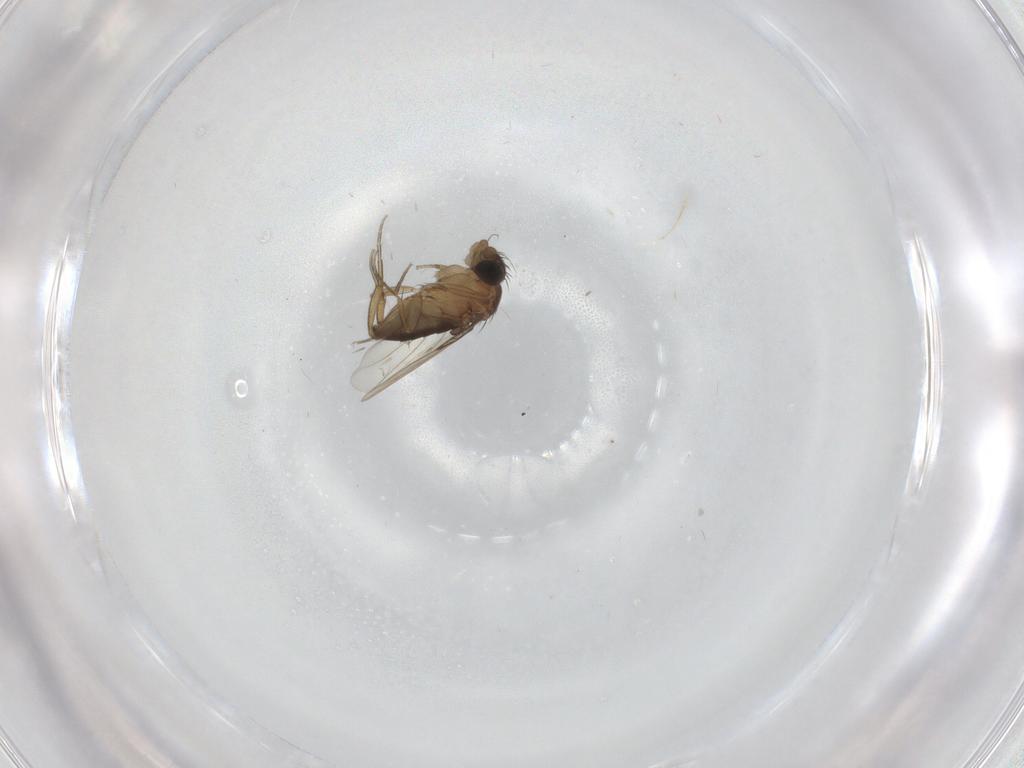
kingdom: Animalia
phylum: Arthropoda
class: Insecta
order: Diptera
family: Phoridae
